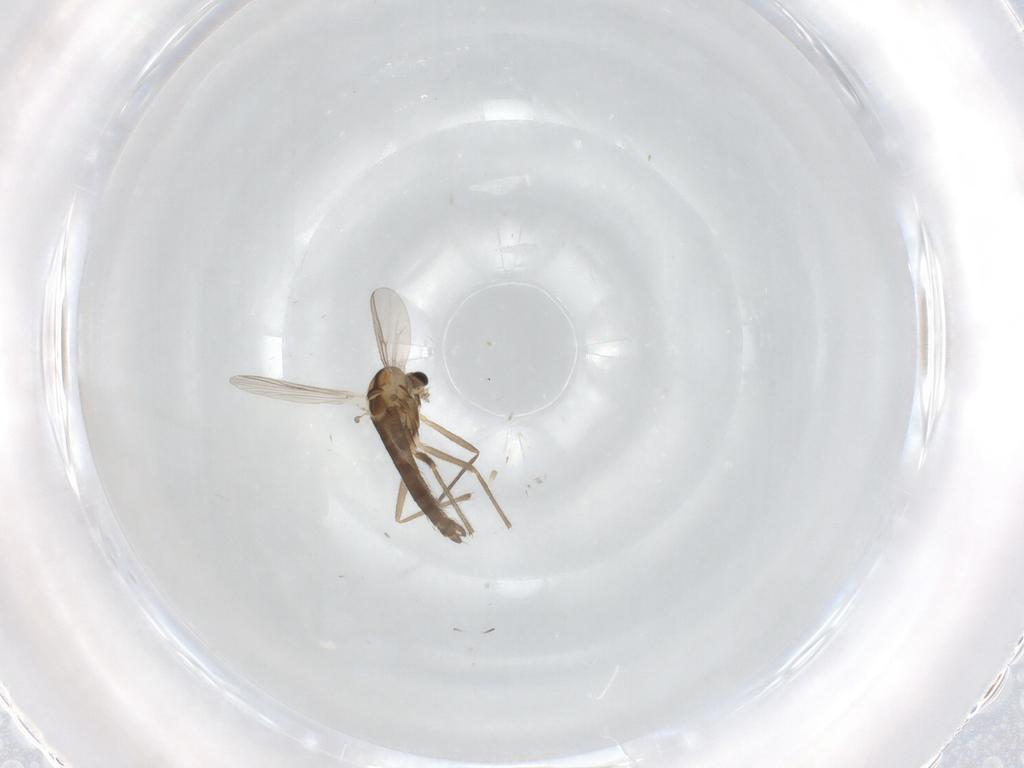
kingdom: Animalia
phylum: Arthropoda
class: Insecta
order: Diptera
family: Chironomidae
